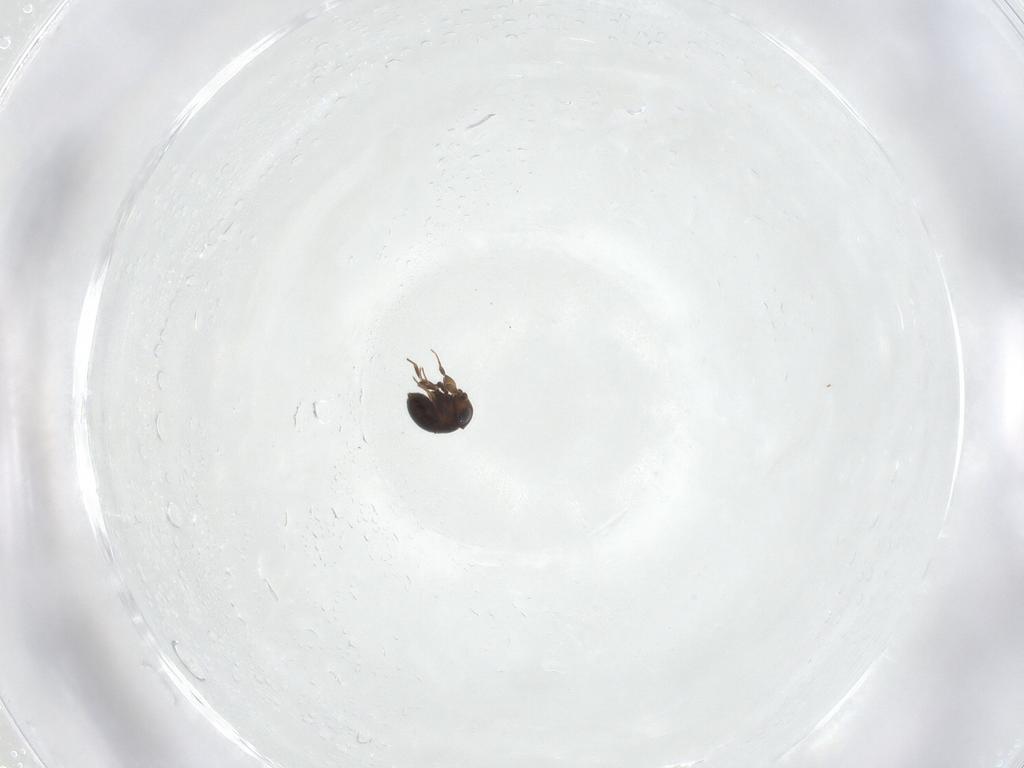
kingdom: Animalia
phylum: Arthropoda
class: Insecta
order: Hymenoptera
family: Scelionidae
